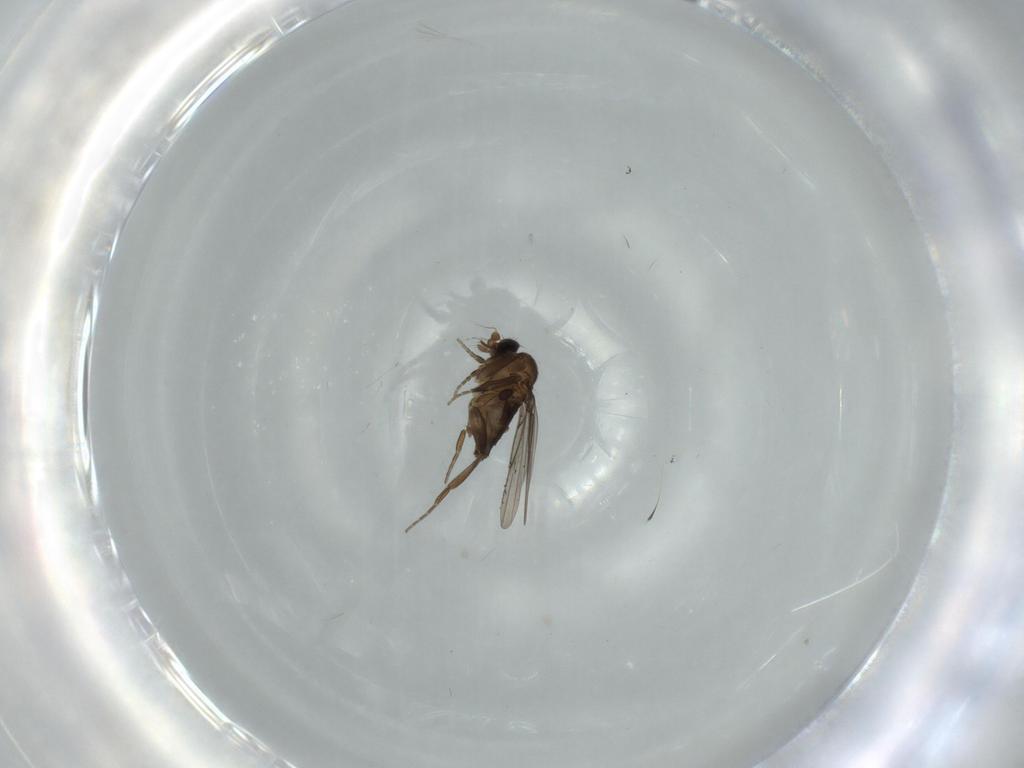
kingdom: Animalia
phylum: Arthropoda
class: Insecta
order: Diptera
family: Phoridae
